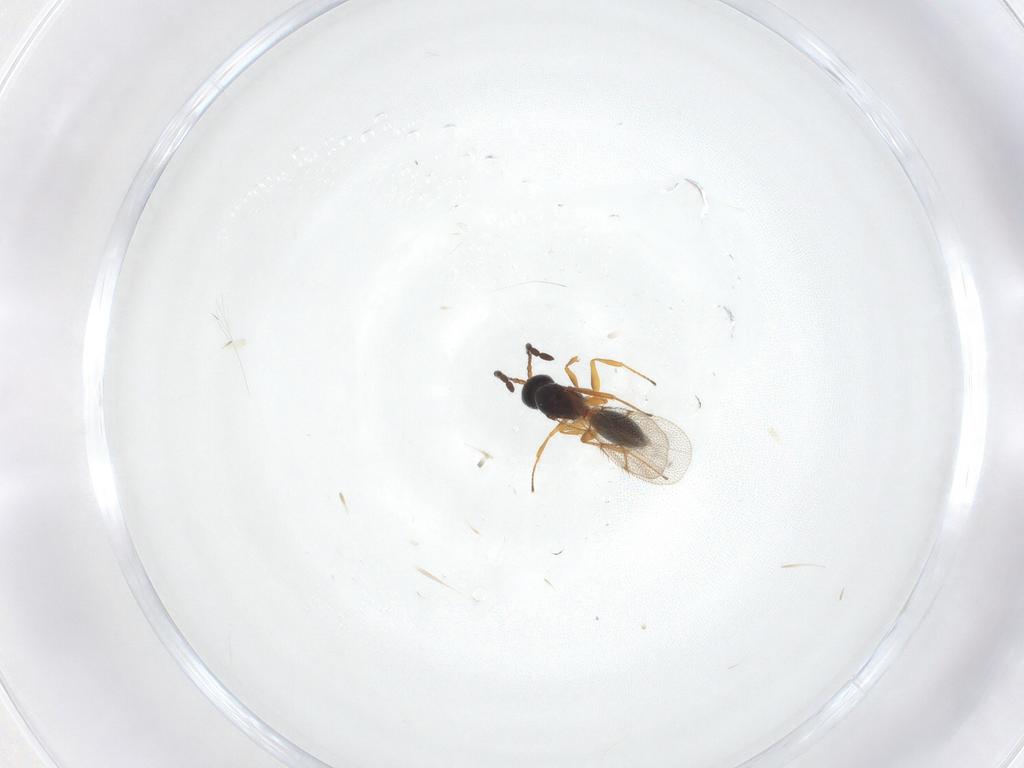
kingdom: Animalia
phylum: Arthropoda
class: Insecta
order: Hymenoptera
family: Figitidae
